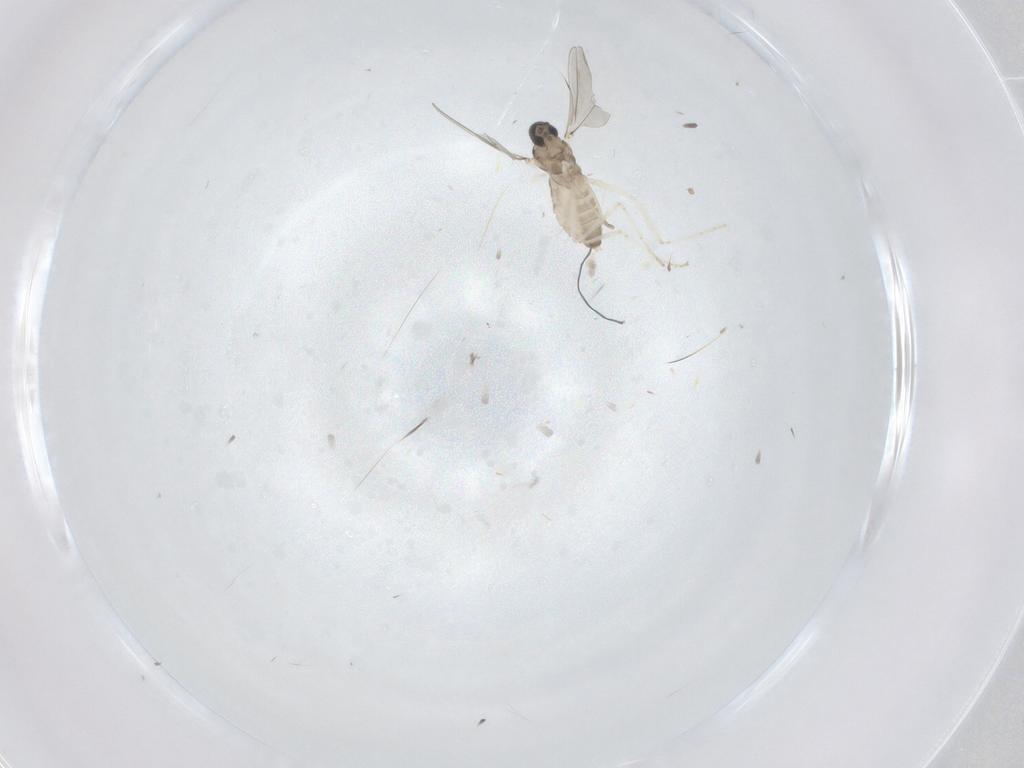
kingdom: Animalia
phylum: Arthropoda
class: Insecta
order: Diptera
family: Cecidomyiidae
